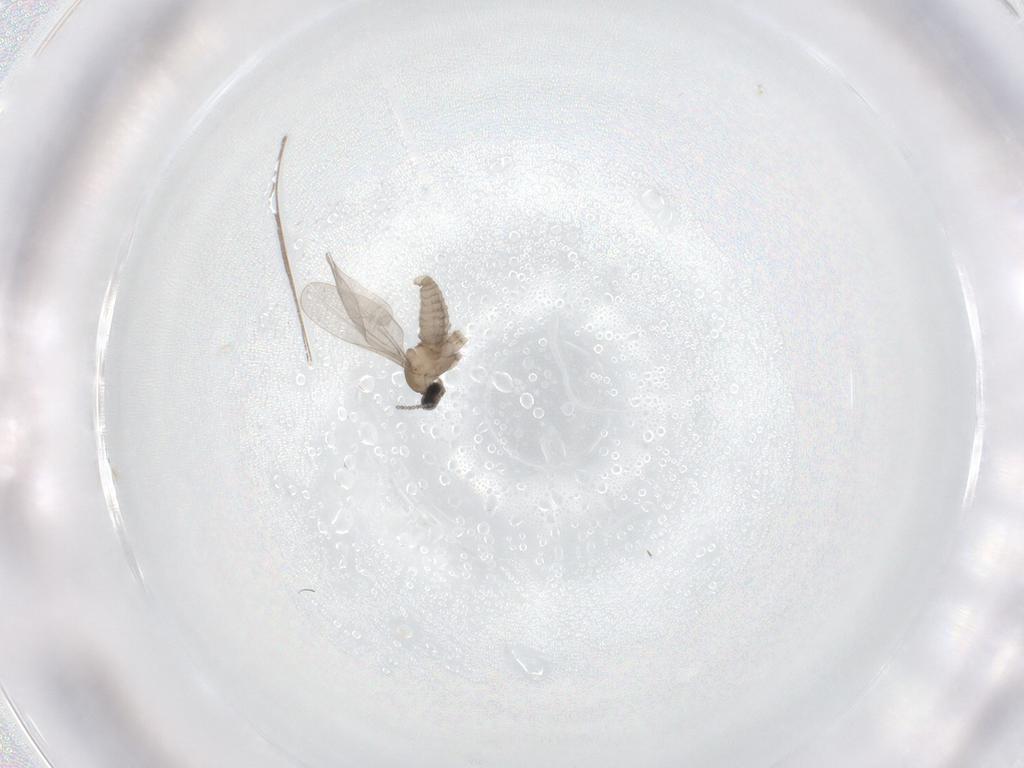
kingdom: Animalia
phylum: Arthropoda
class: Insecta
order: Diptera
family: Cecidomyiidae
